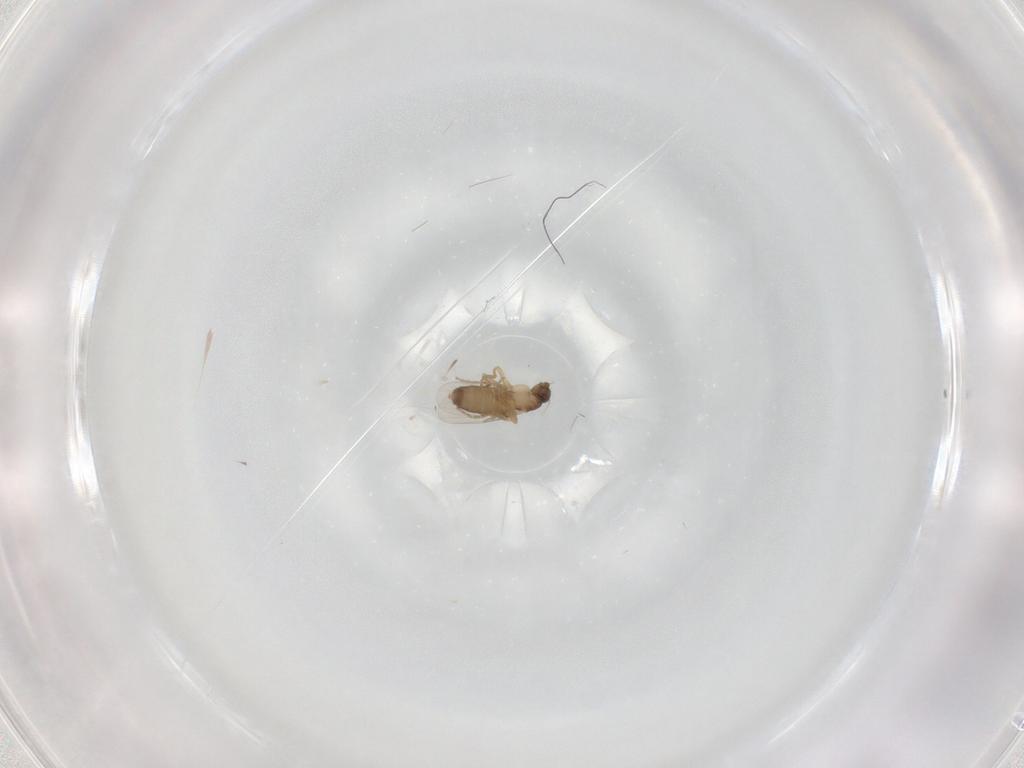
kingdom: Animalia
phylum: Arthropoda
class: Insecta
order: Diptera
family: Phoridae
